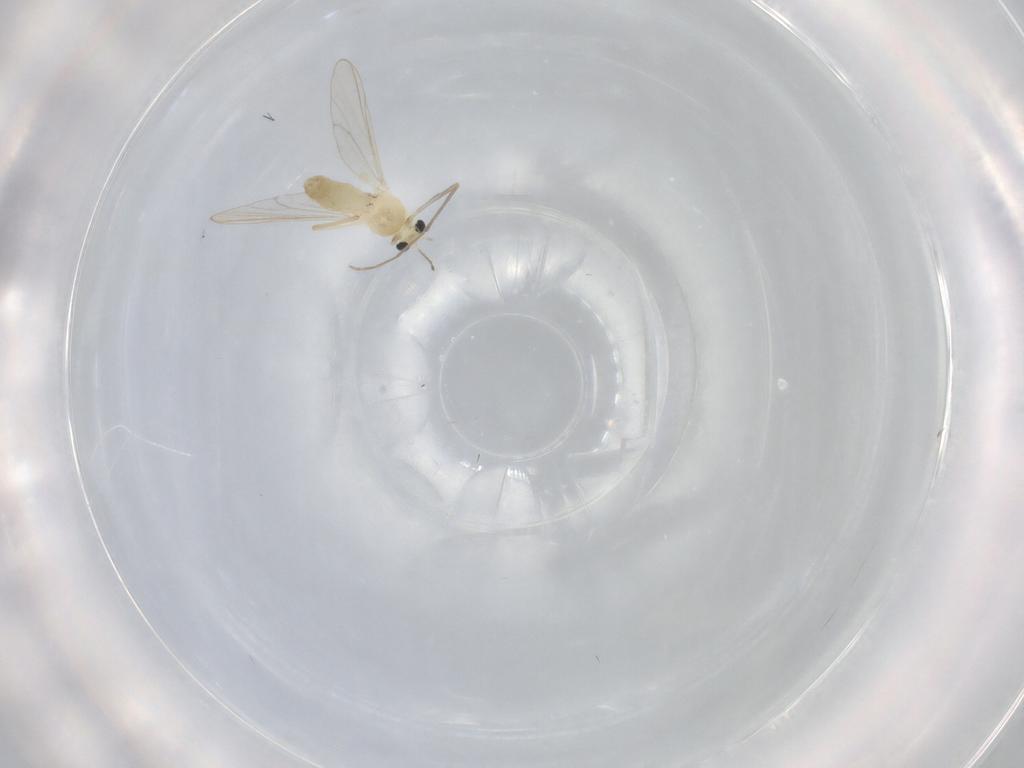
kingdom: Animalia
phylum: Arthropoda
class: Insecta
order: Diptera
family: Chironomidae
